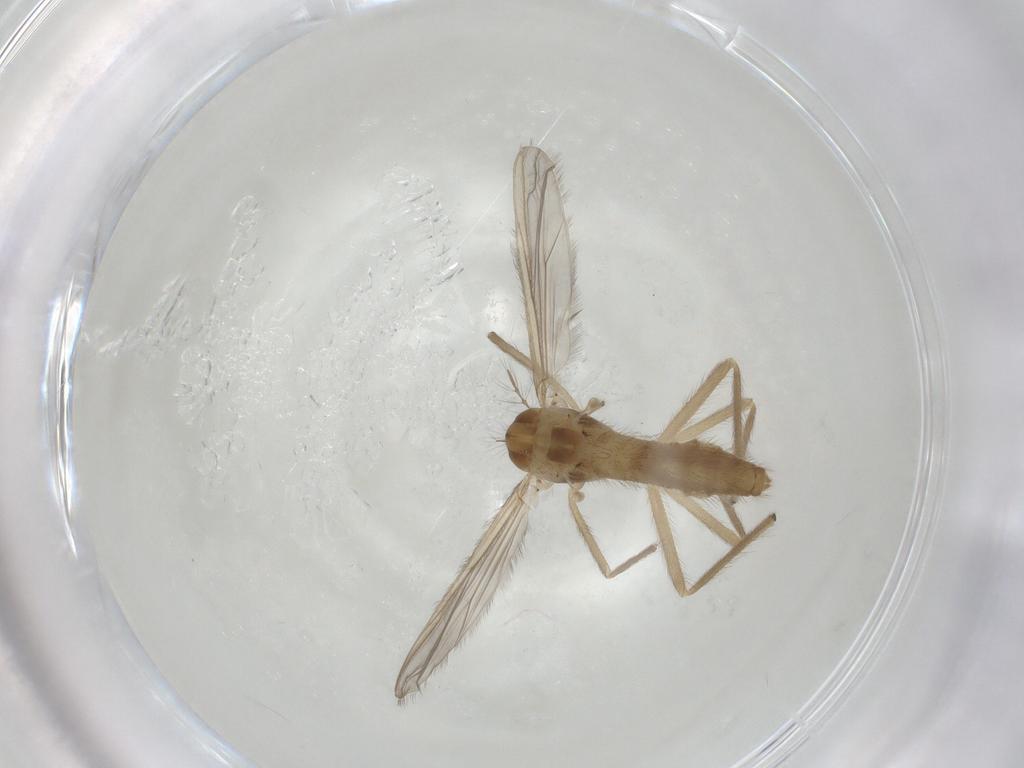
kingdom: Animalia
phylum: Arthropoda
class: Insecta
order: Diptera
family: Chironomidae
